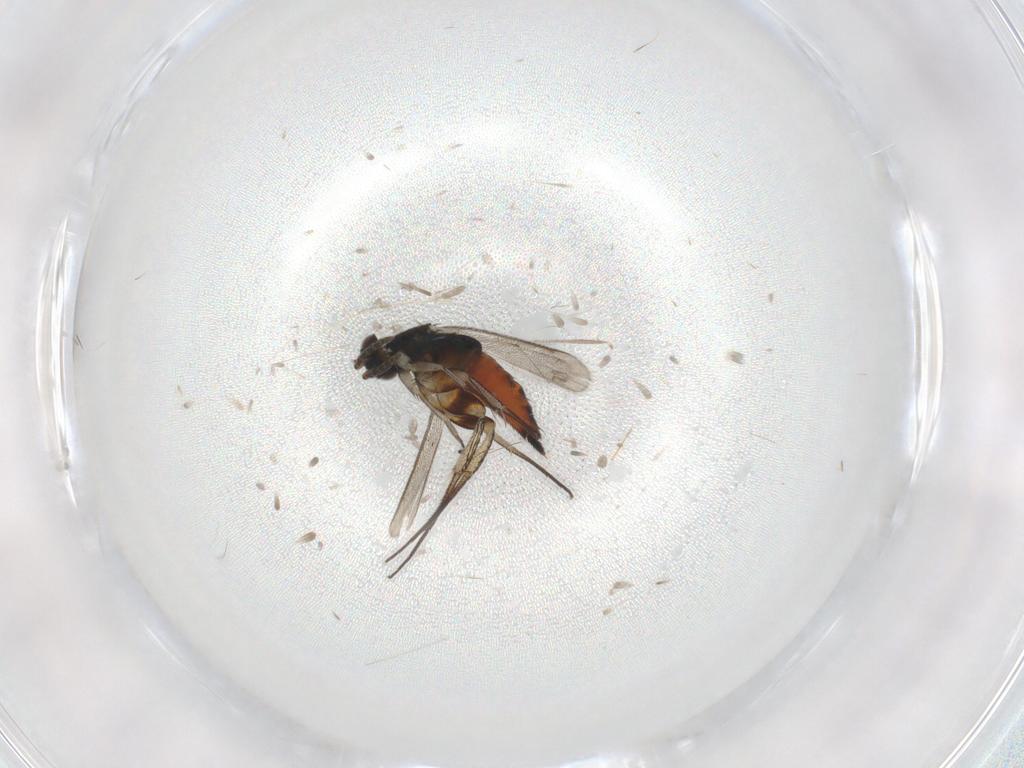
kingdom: Animalia
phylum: Arthropoda
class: Insecta
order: Hymenoptera
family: Eulophidae
